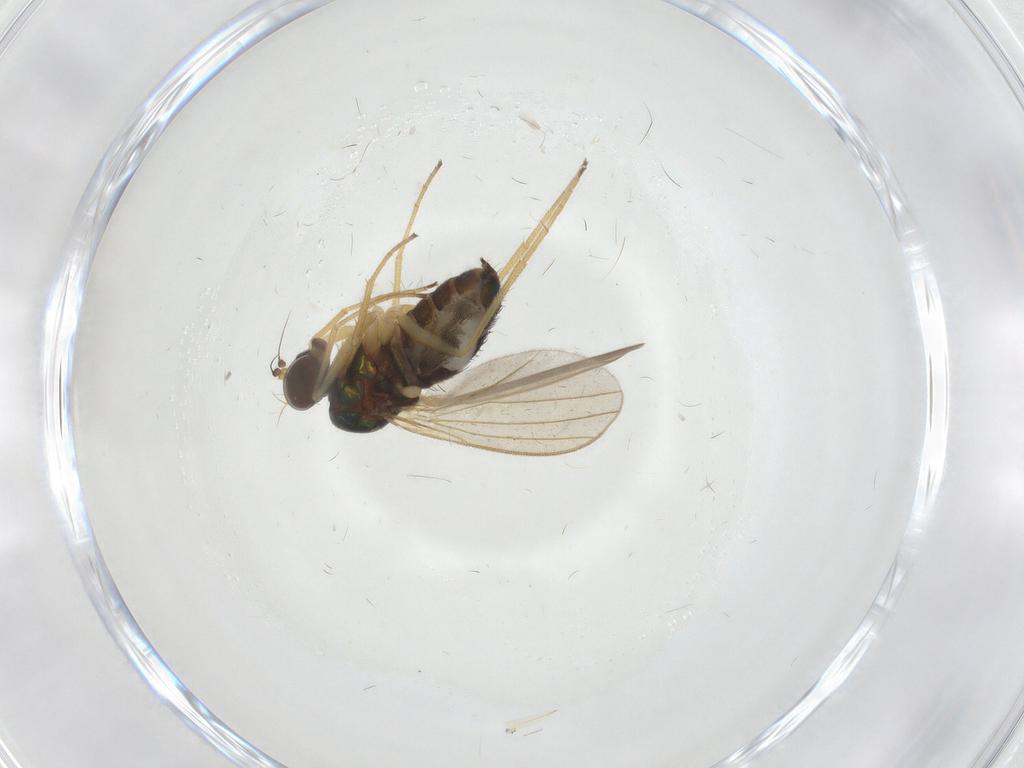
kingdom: Animalia
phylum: Arthropoda
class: Insecta
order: Diptera
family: Dolichopodidae
